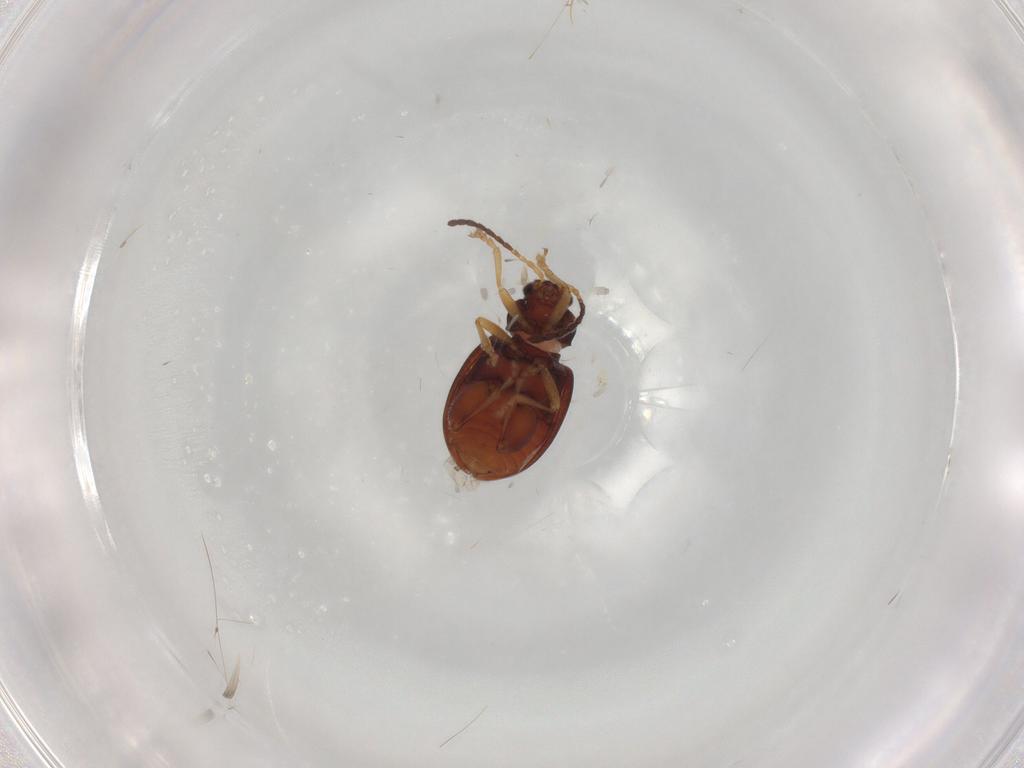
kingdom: Animalia
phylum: Arthropoda
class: Insecta
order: Coleoptera
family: Chrysomelidae
